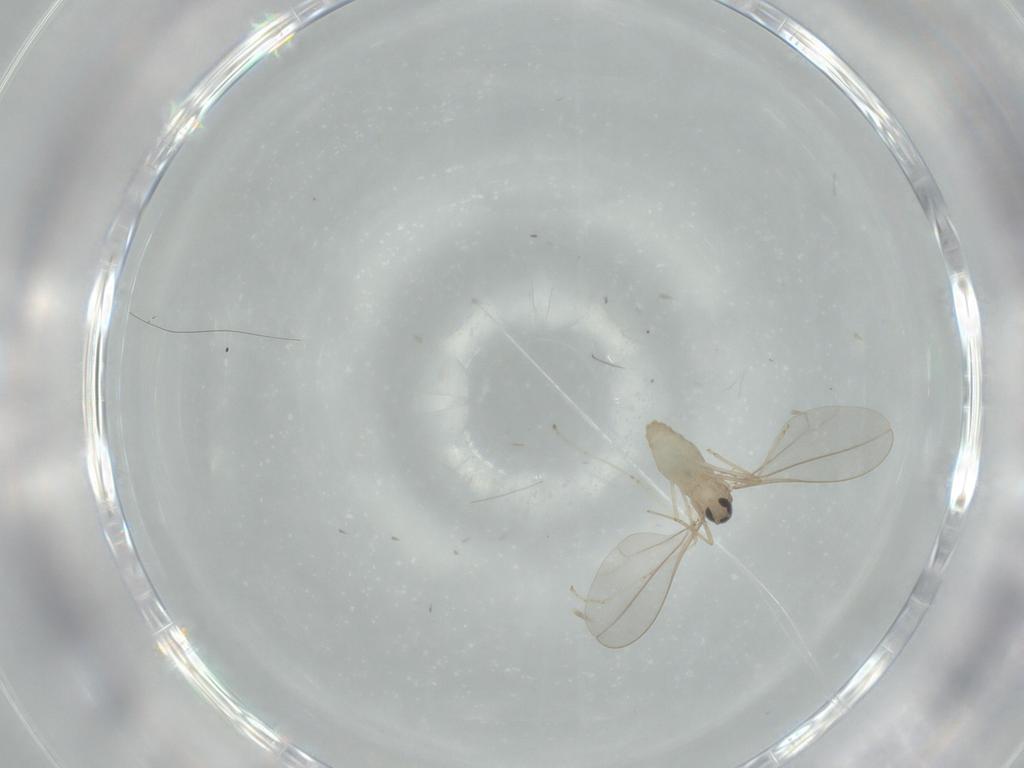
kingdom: Animalia
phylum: Arthropoda
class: Insecta
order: Diptera
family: Cecidomyiidae
